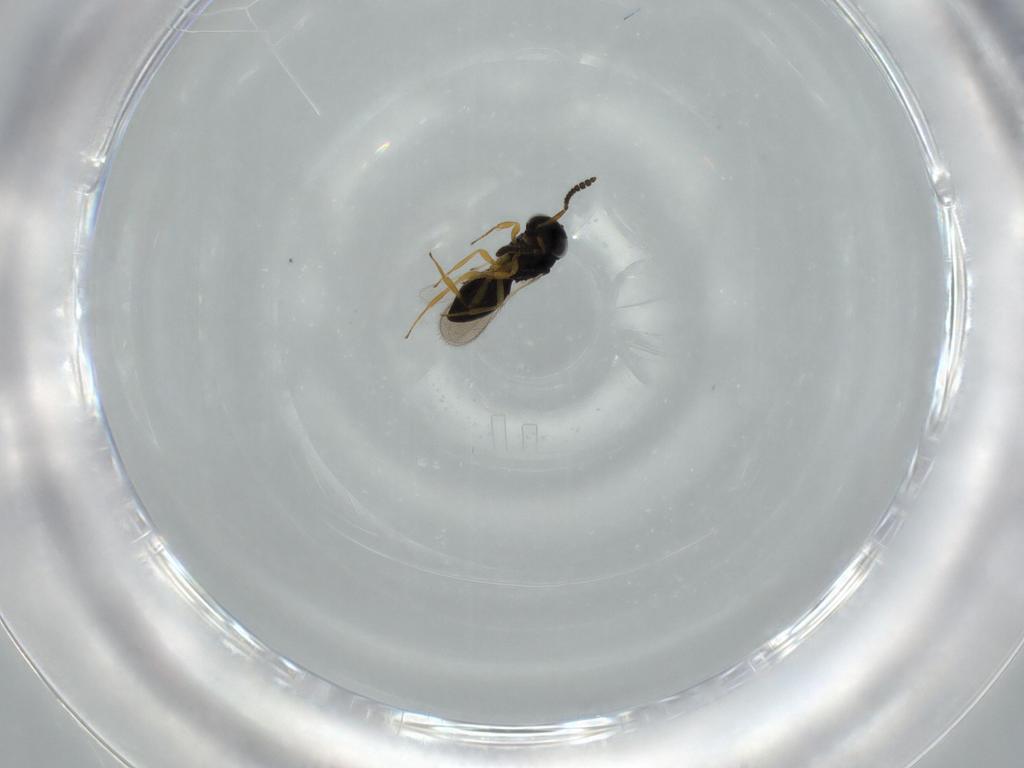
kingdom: Animalia
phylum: Arthropoda
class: Insecta
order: Hymenoptera
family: Scelionidae
